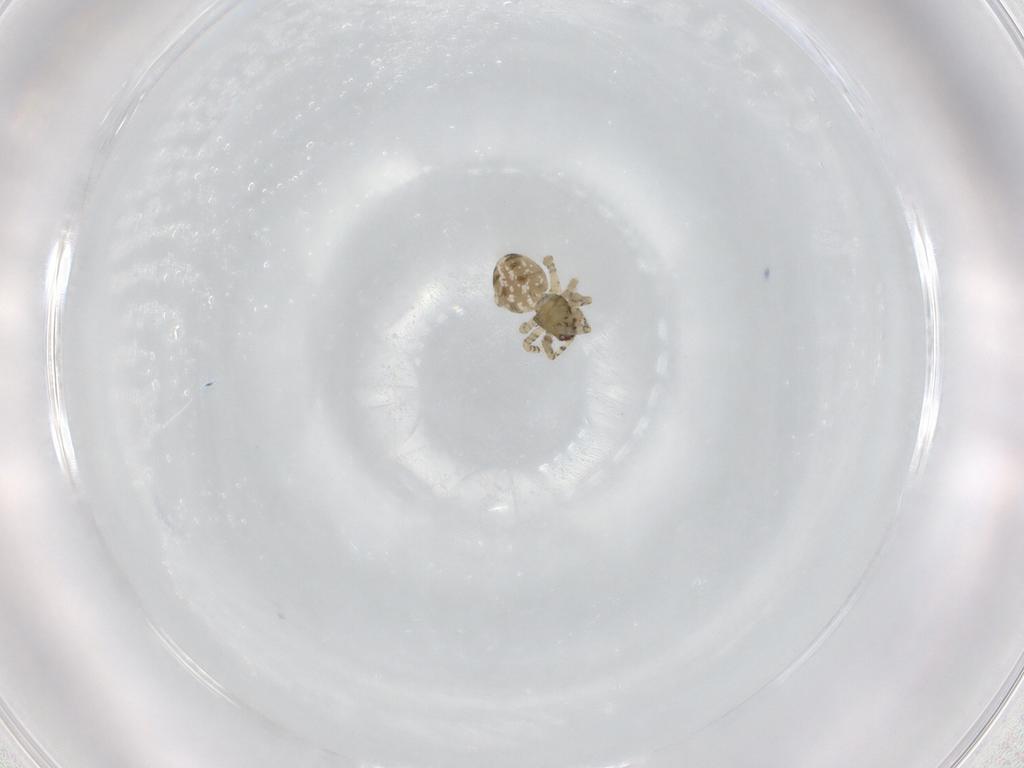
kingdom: Animalia
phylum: Arthropoda
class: Arachnida
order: Araneae
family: Theridiidae
